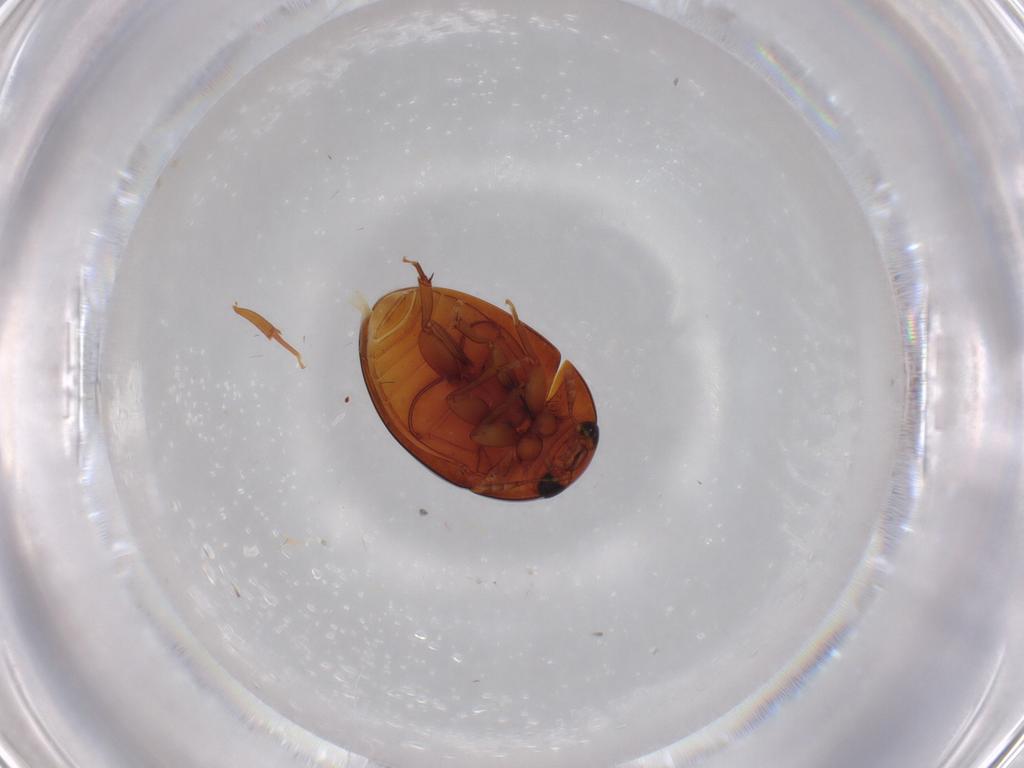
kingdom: Animalia
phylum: Arthropoda
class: Insecta
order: Coleoptera
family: Phalacridae
